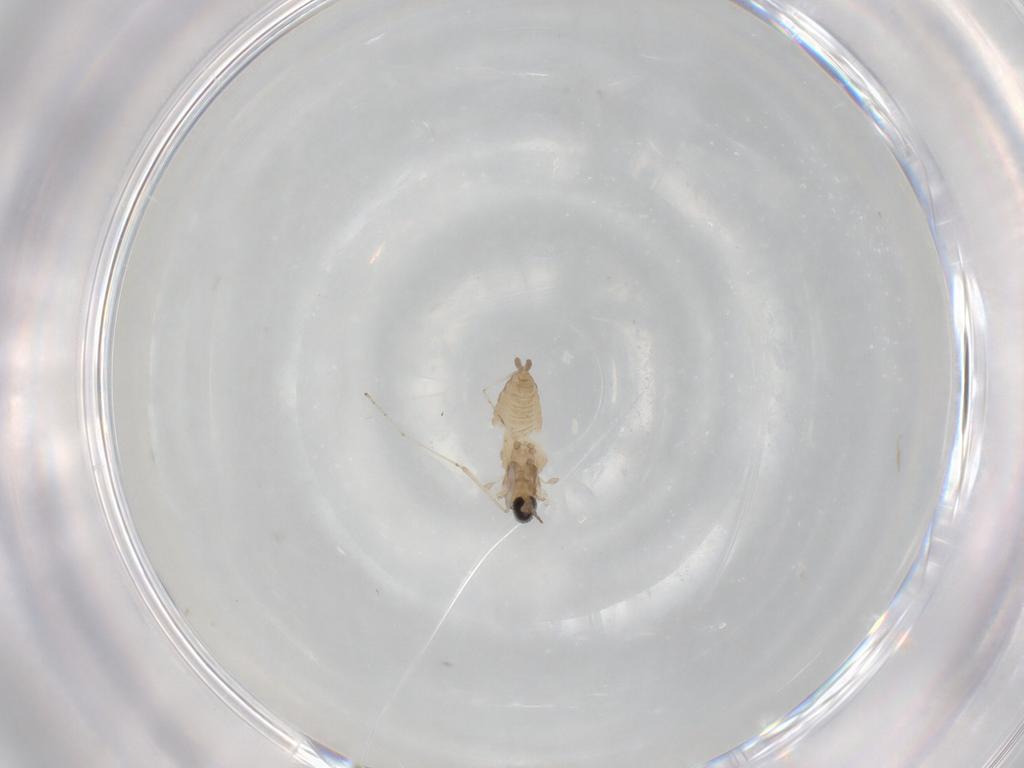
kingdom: Animalia
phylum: Arthropoda
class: Insecta
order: Diptera
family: Cecidomyiidae
